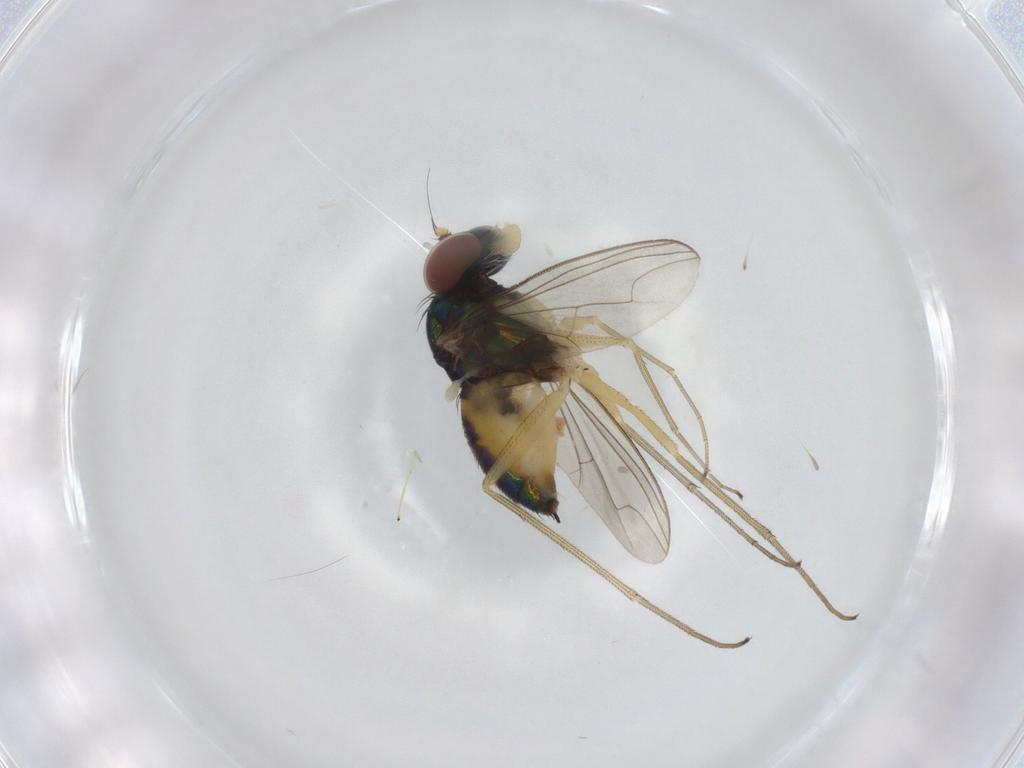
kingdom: Animalia
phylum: Arthropoda
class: Insecta
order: Diptera
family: Dolichopodidae
